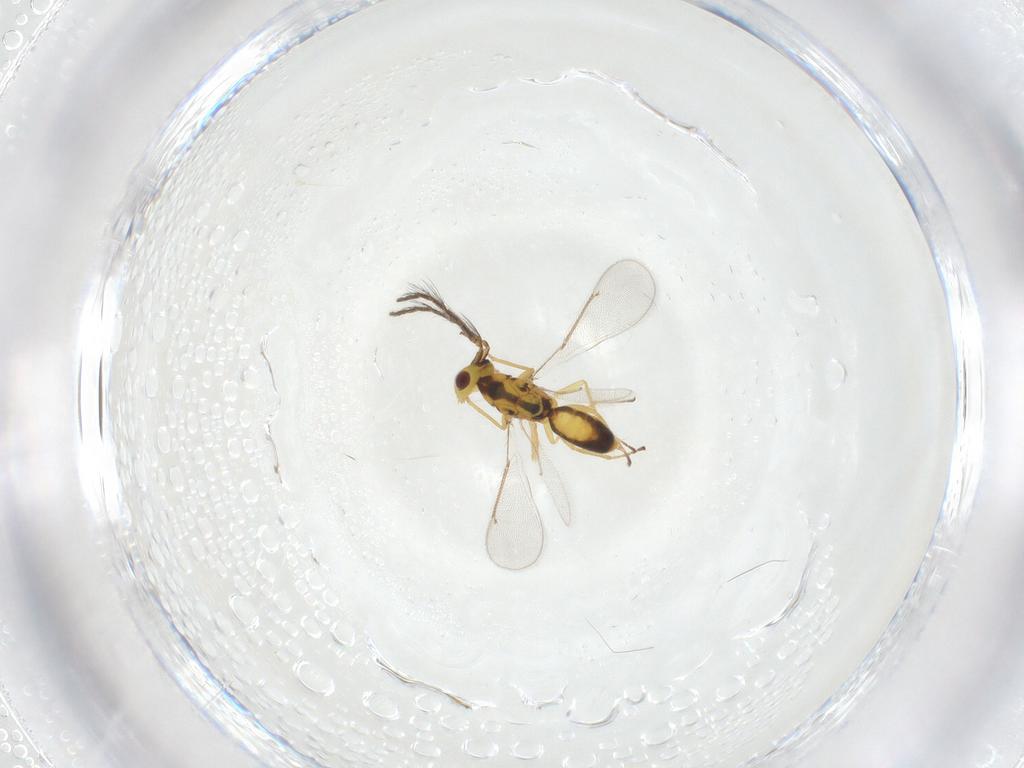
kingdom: Animalia
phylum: Arthropoda
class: Insecta
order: Hymenoptera
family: Eulophidae
